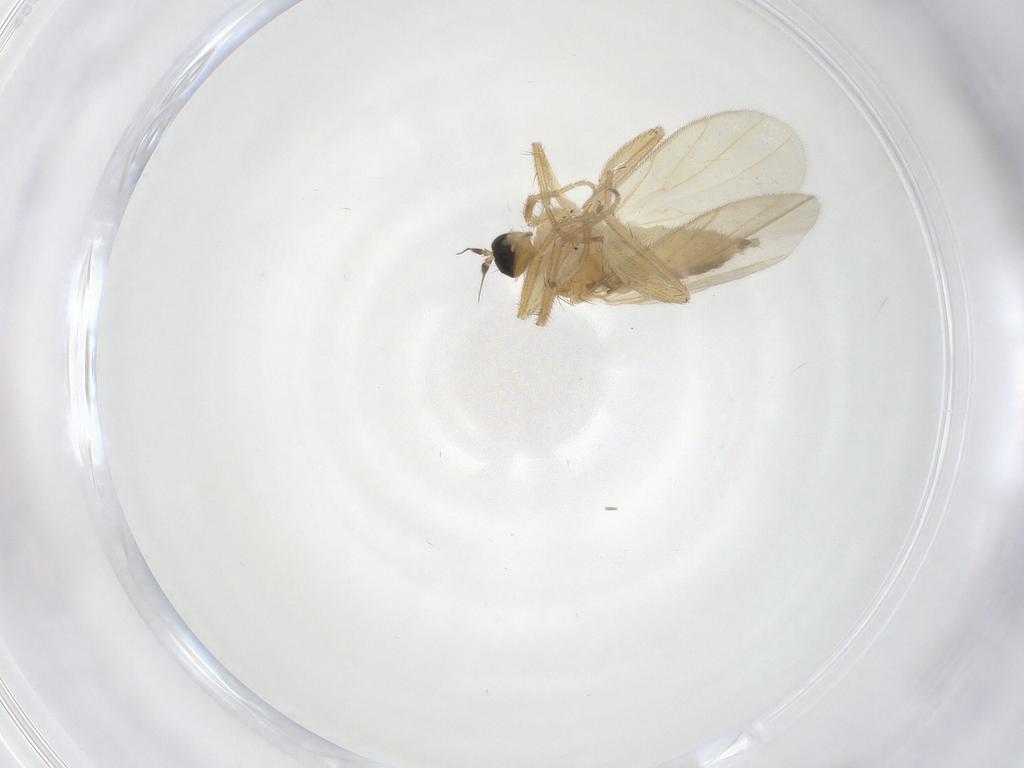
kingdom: Animalia
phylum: Arthropoda
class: Insecta
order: Diptera
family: Hybotidae
